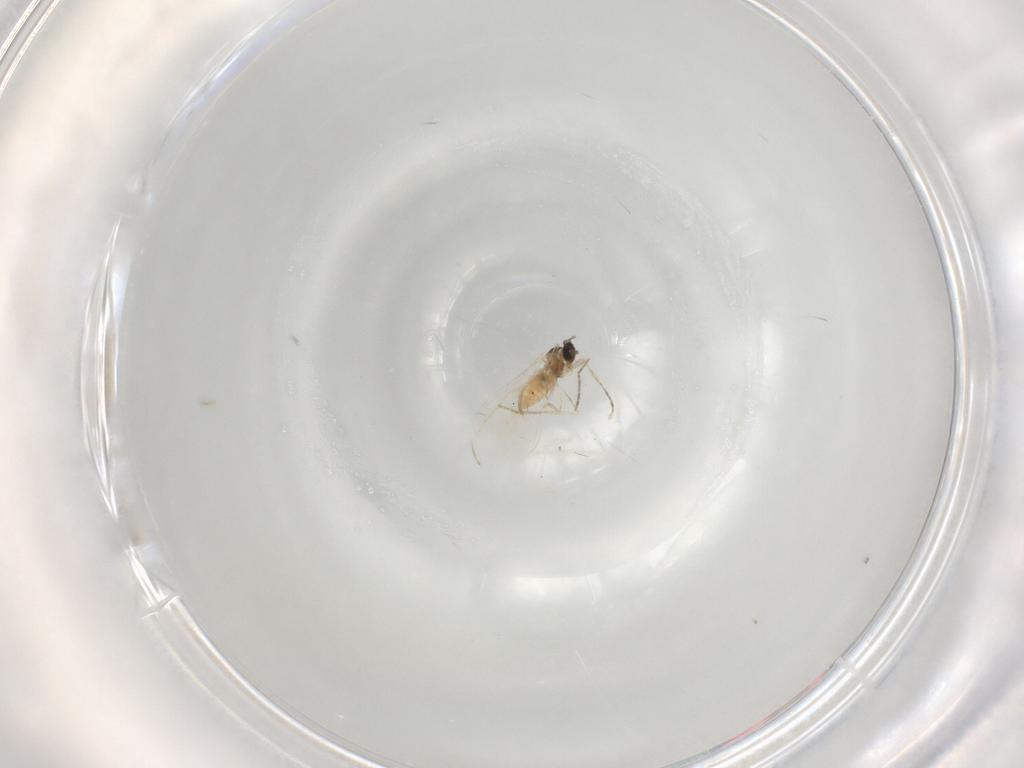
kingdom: Animalia
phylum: Arthropoda
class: Insecta
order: Diptera
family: Cecidomyiidae
